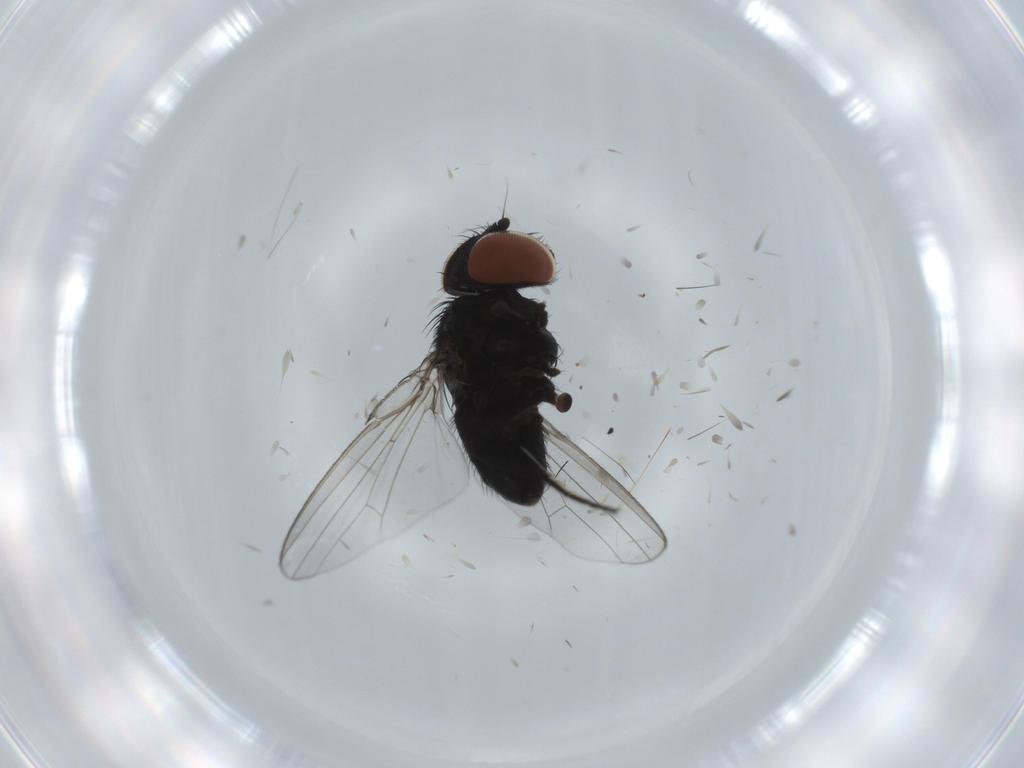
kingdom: Animalia
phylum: Arthropoda
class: Insecta
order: Diptera
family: Milichiidae
